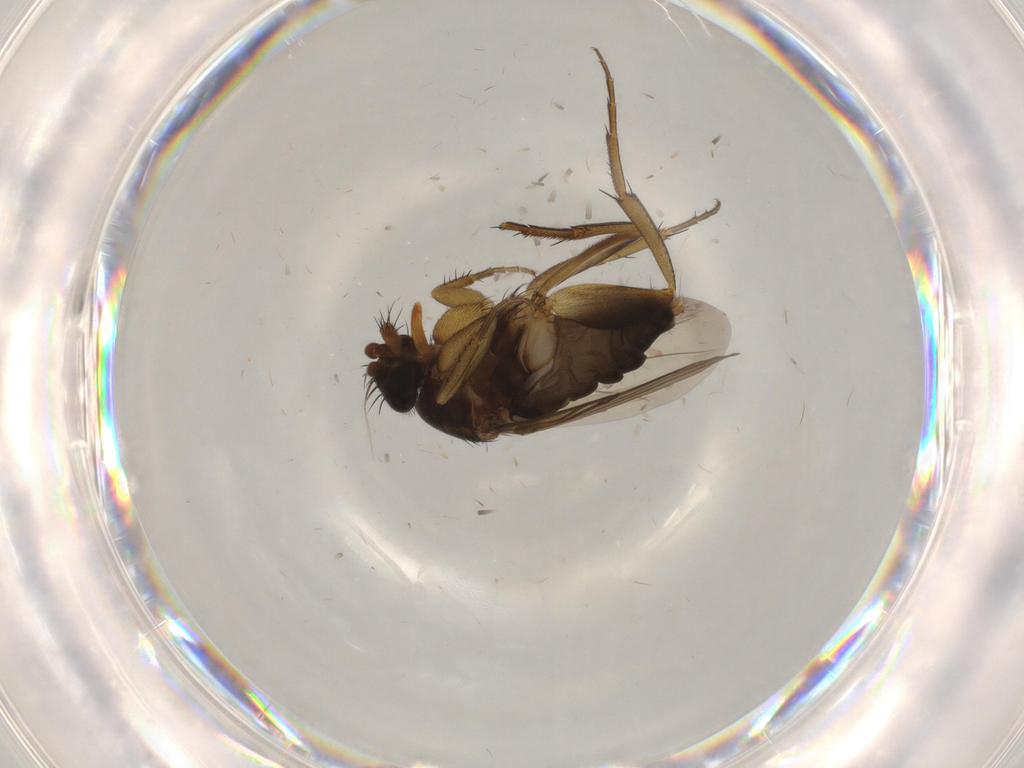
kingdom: Animalia
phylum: Arthropoda
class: Insecta
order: Diptera
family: Phoridae
